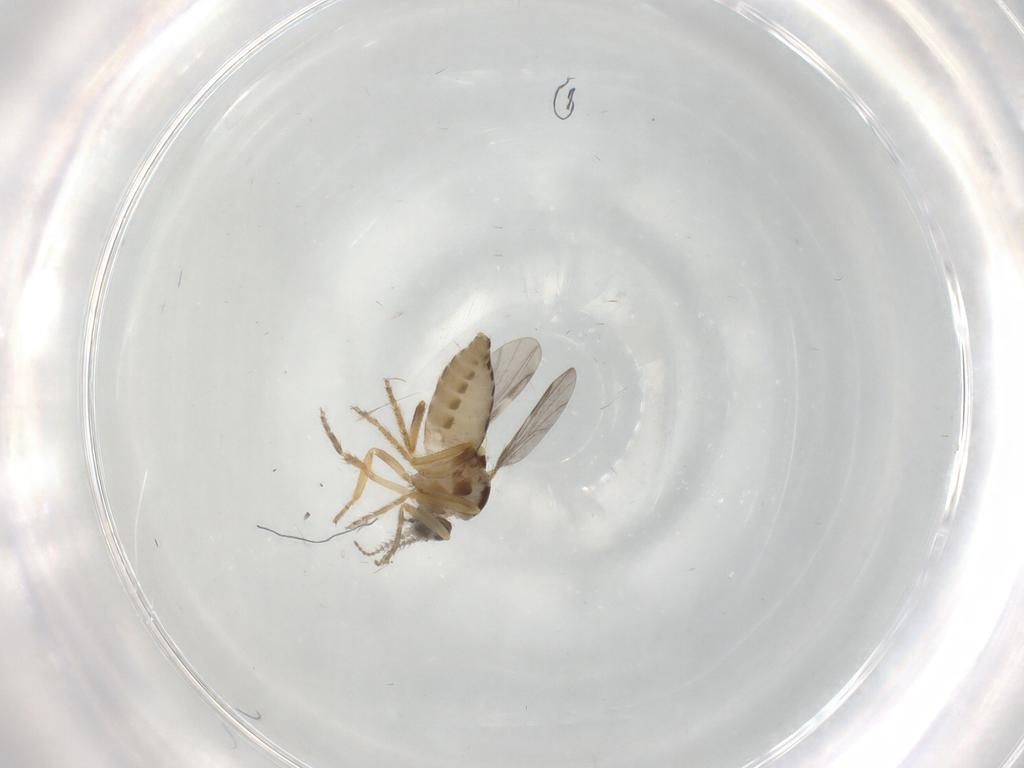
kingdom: Animalia
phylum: Arthropoda
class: Insecta
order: Diptera
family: Ceratopogonidae
